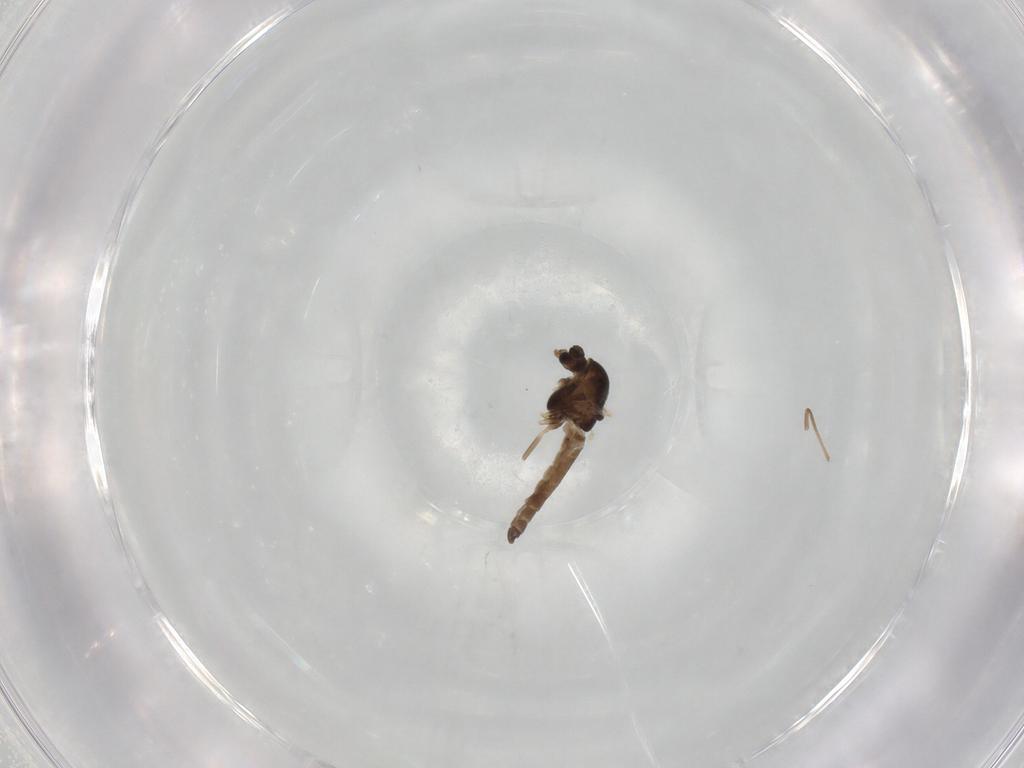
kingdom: Animalia
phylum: Arthropoda
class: Insecta
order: Diptera
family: Chironomidae
